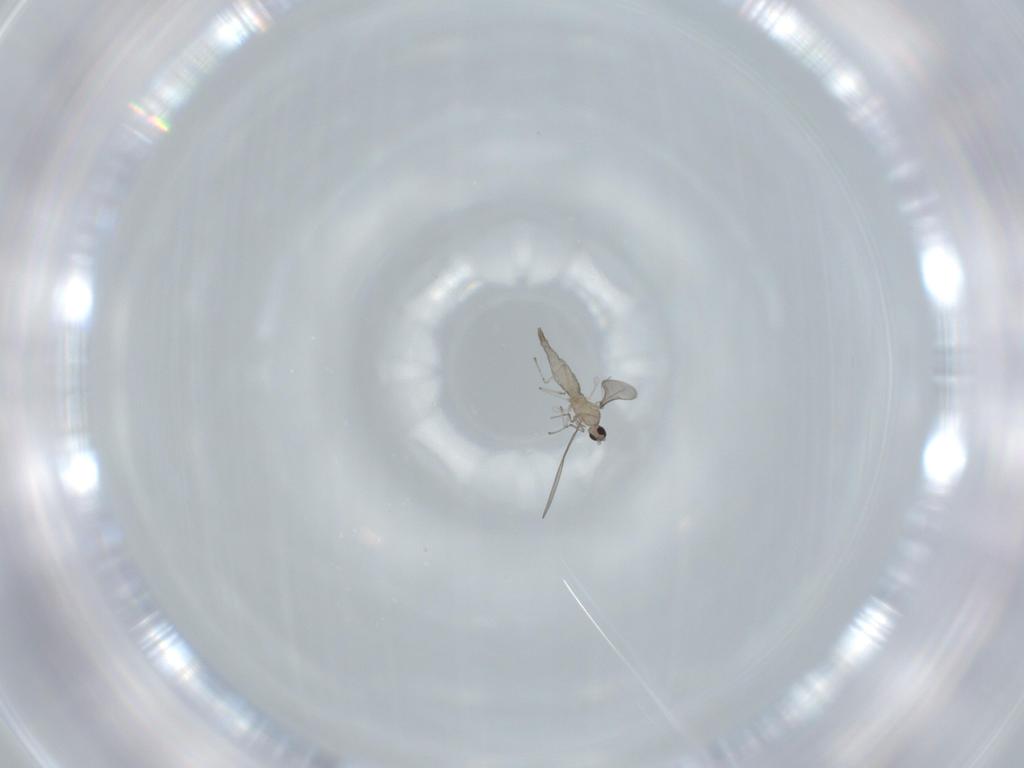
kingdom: Animalia
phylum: Arthropoda
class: Insecta
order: Diptera
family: Cecidomyiidae
